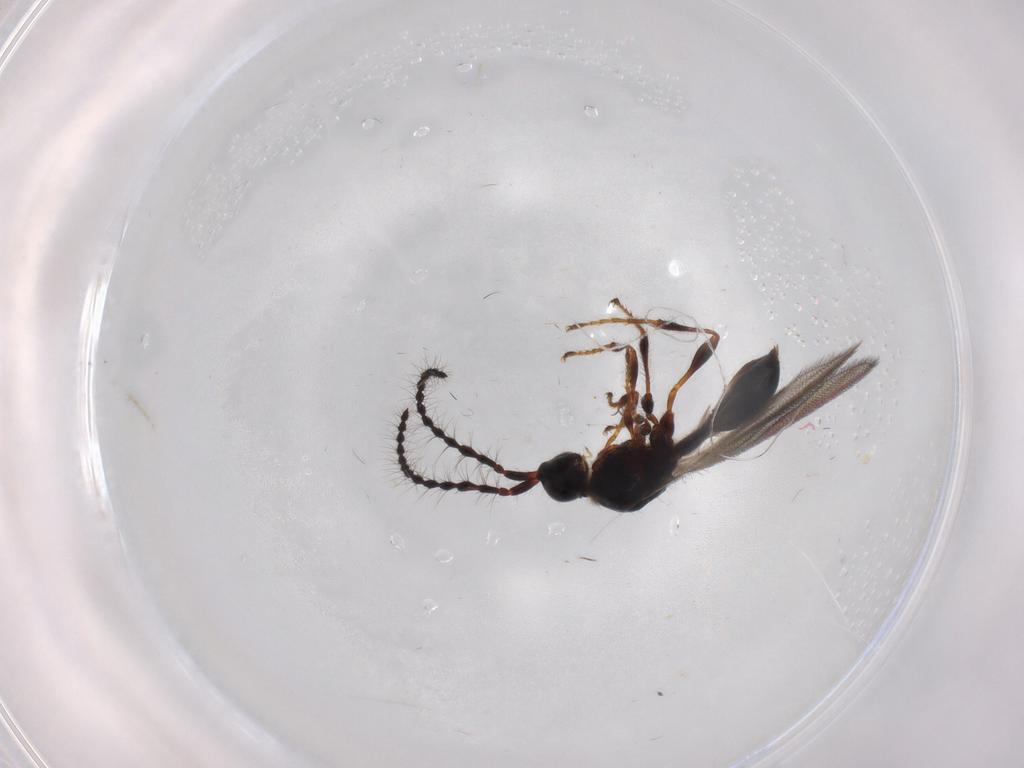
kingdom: Animalia
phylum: Arthropoda
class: Insecta
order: Hymenoptera
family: Diapriidae
